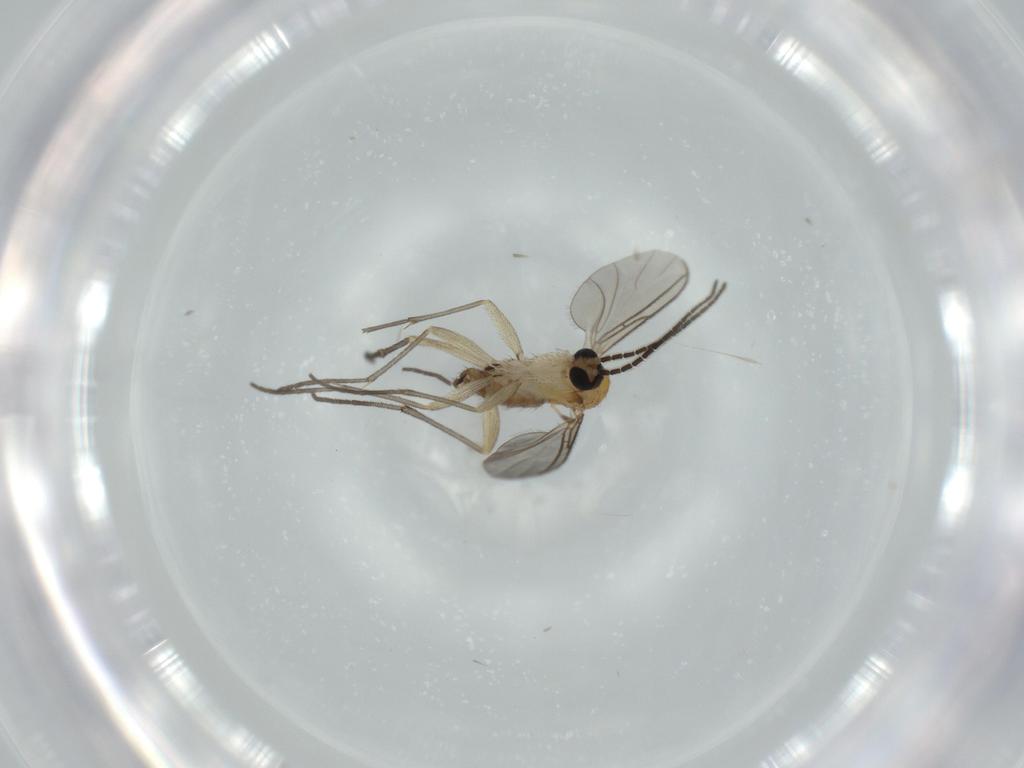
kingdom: Animalia
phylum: Arthropoda
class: Insecta
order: Diptera
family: Sciaridae
